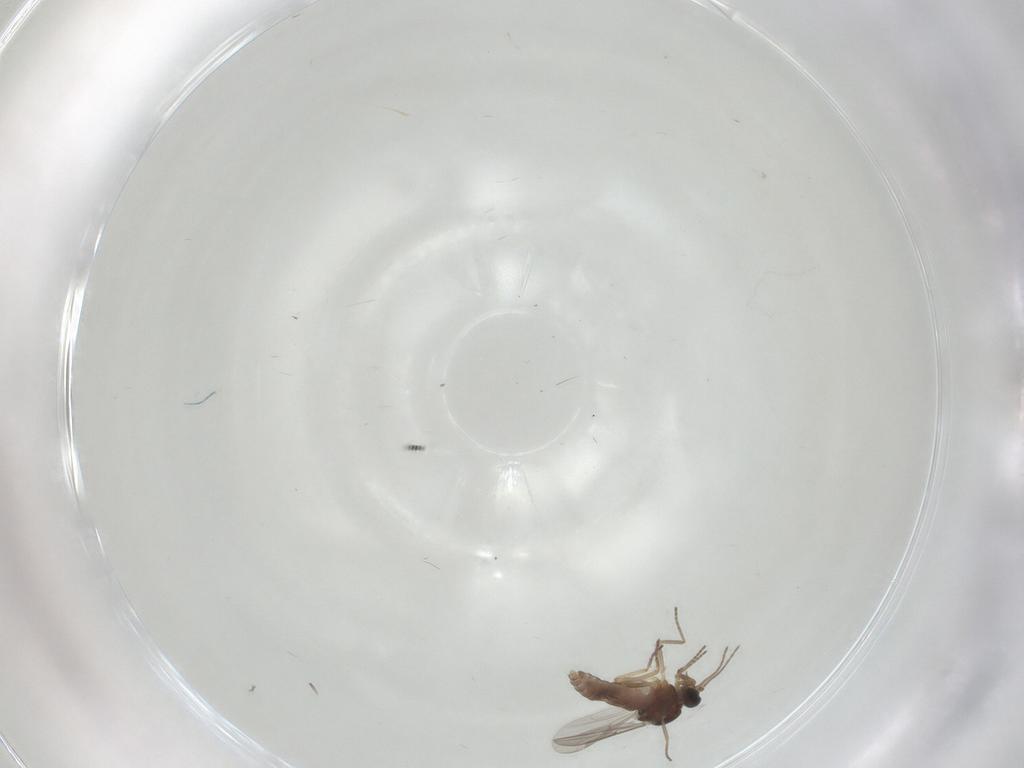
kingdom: Animalia
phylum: Arthropoda
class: Insecta
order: Diptera
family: Ceratopogonidae
